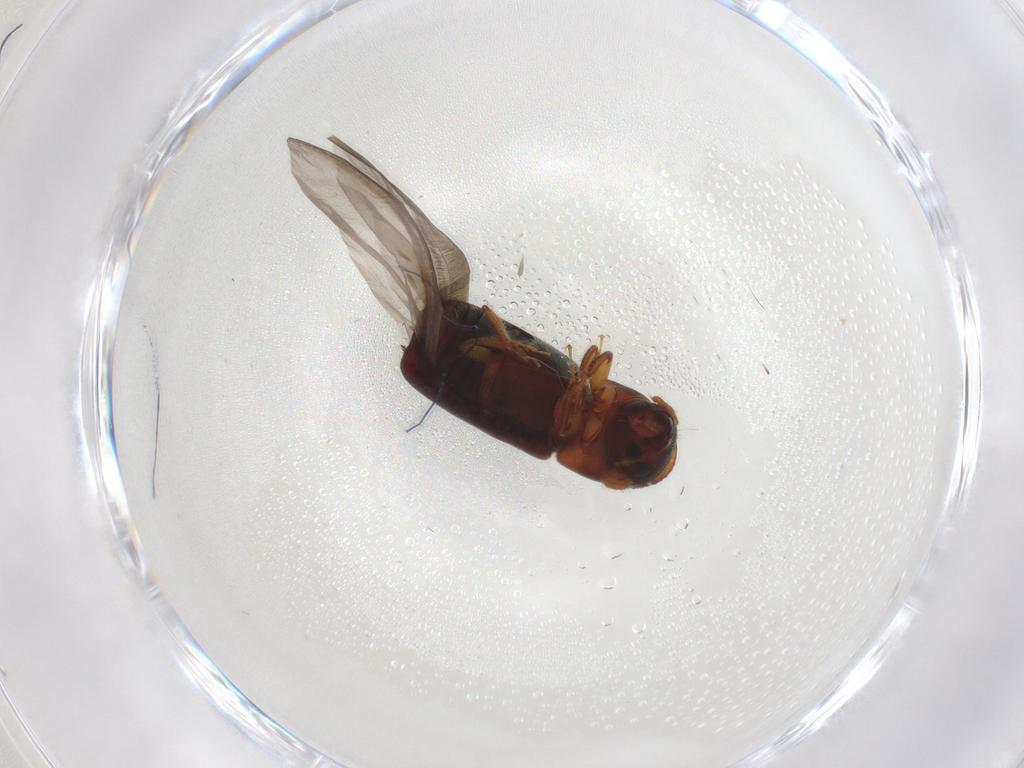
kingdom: Animalia
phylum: Arthropoda
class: Insecta
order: Coleoptera
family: Curculionidae
